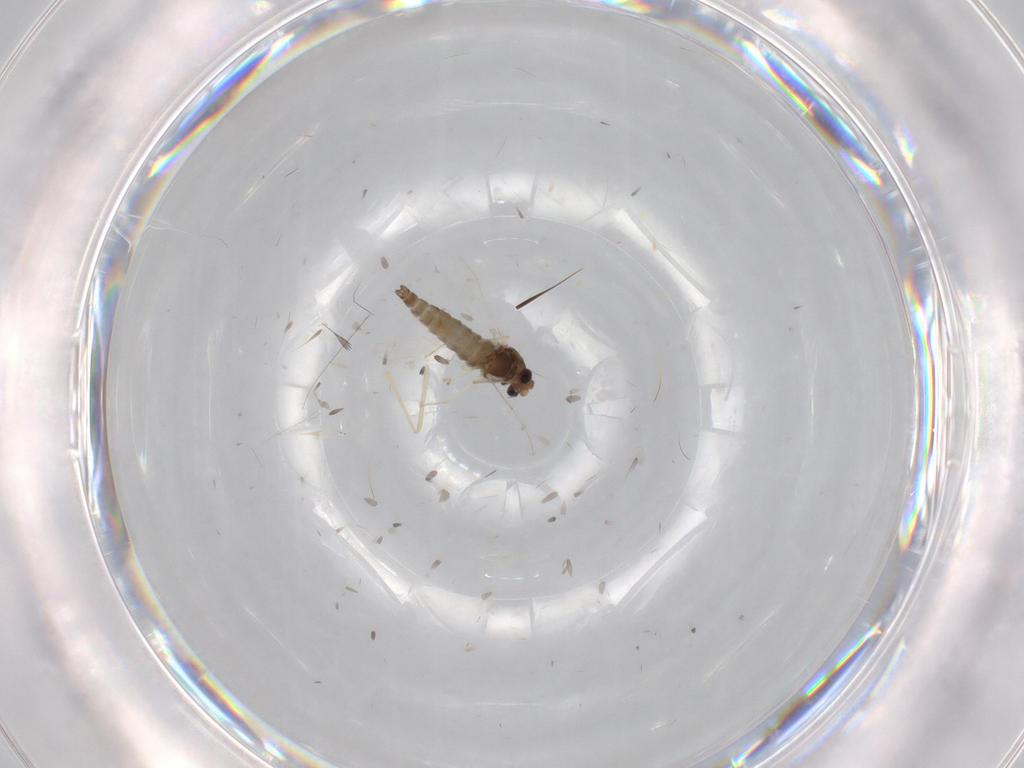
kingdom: Animalia
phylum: Arthropoda
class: Insecta
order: Diptera
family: Chironomidae
